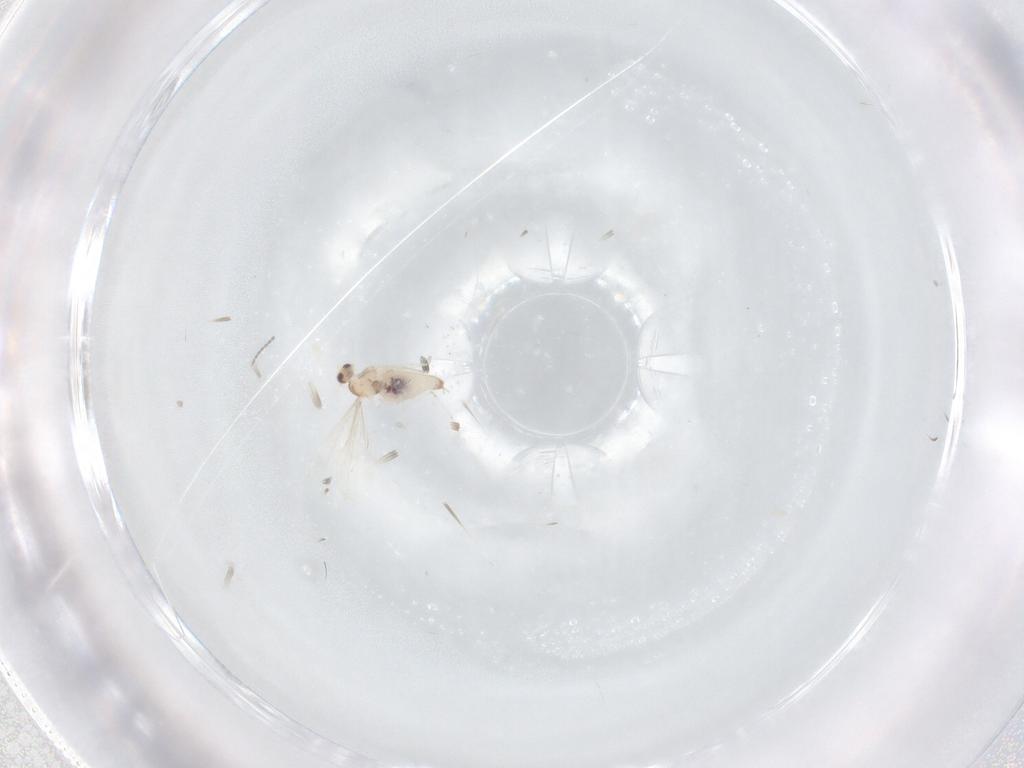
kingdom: Animalia
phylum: Arthropoda
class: Insecta
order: Diptera
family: Cecidomyiidae
